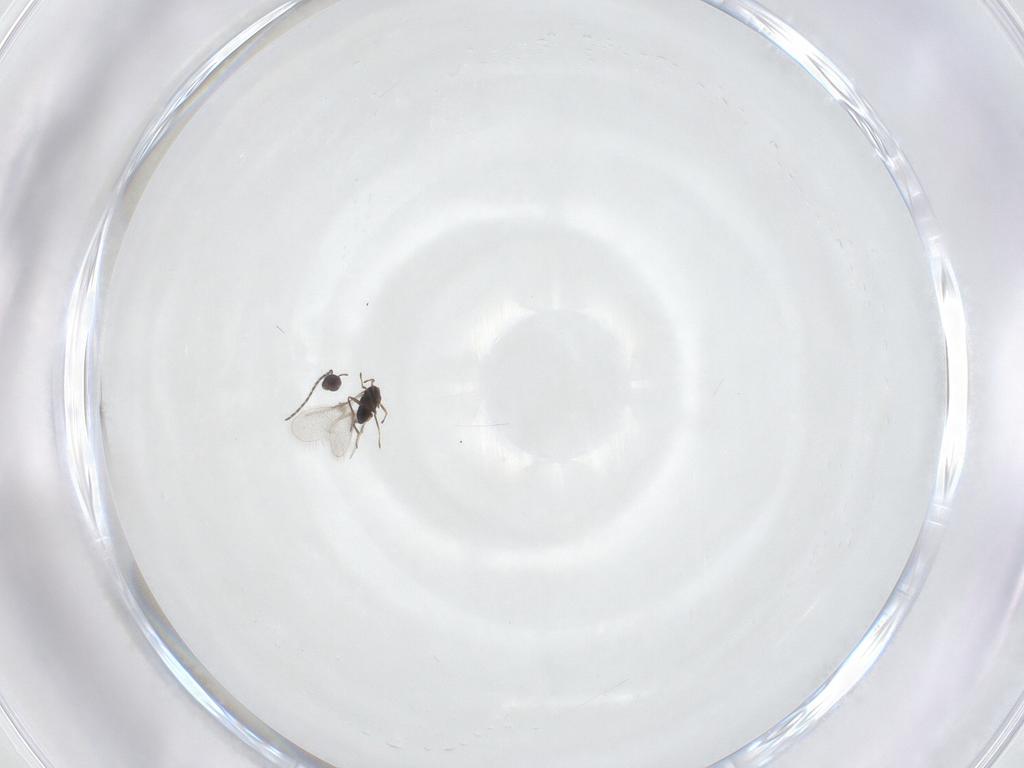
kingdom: Animalia
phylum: Arthropoda
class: Insecta
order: Hymenoptera
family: Mymaridae
